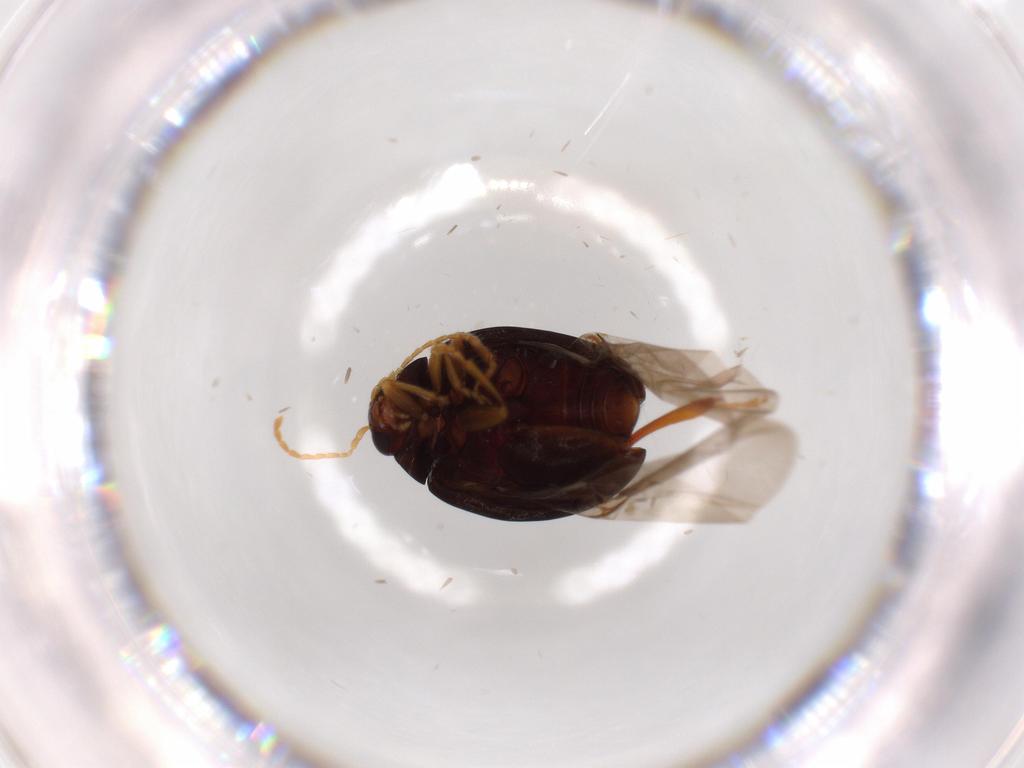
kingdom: Animalia
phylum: Arthropoda
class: Insecta
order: Coleoptera
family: Chrysomelidae
